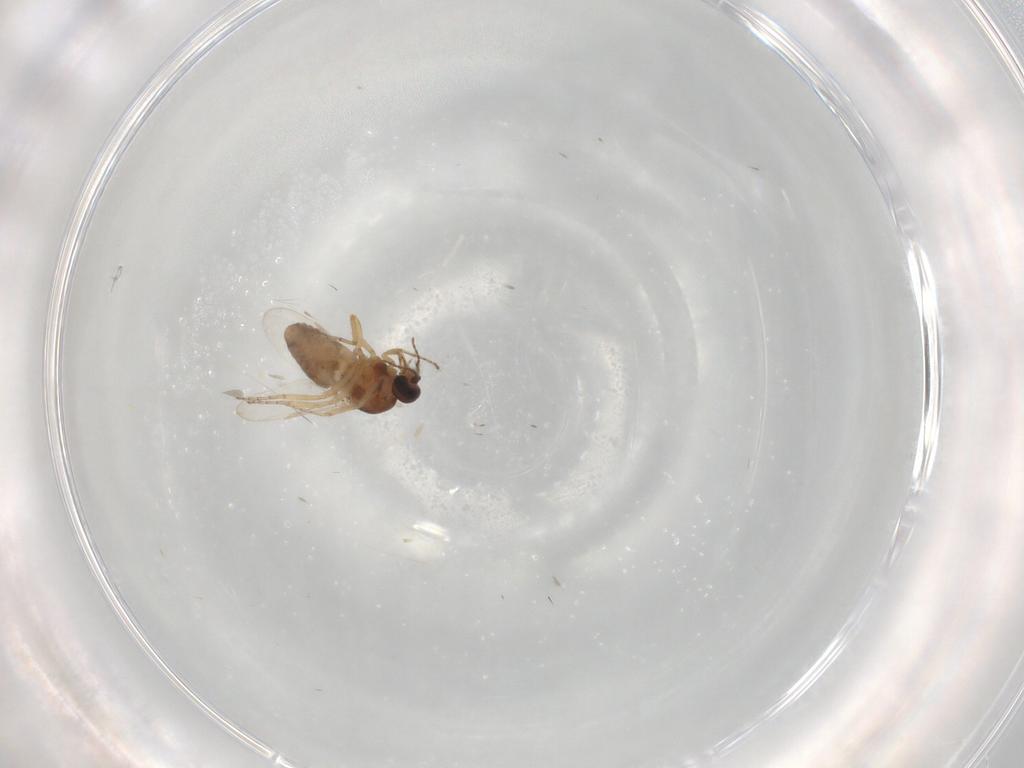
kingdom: Animalia
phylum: Arthropoda
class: Insecta
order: Diptera
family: Ceratopogonidae
